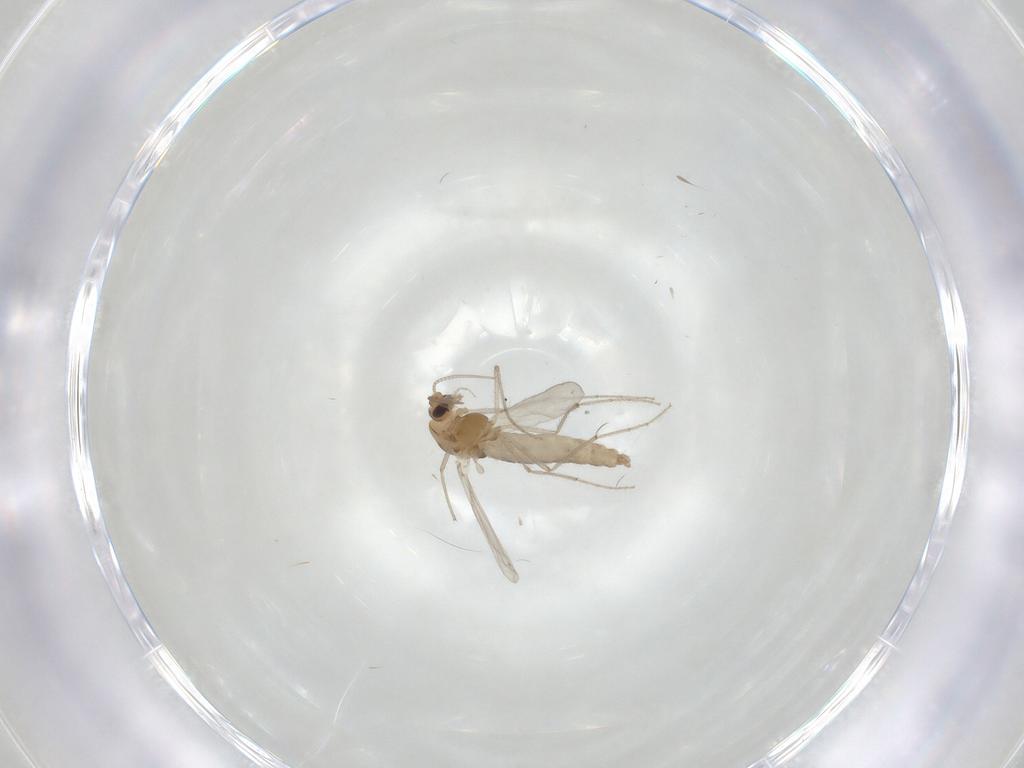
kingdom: Animalia
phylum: Arthropoda
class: Insecta
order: Diptera
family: Chironomidae
